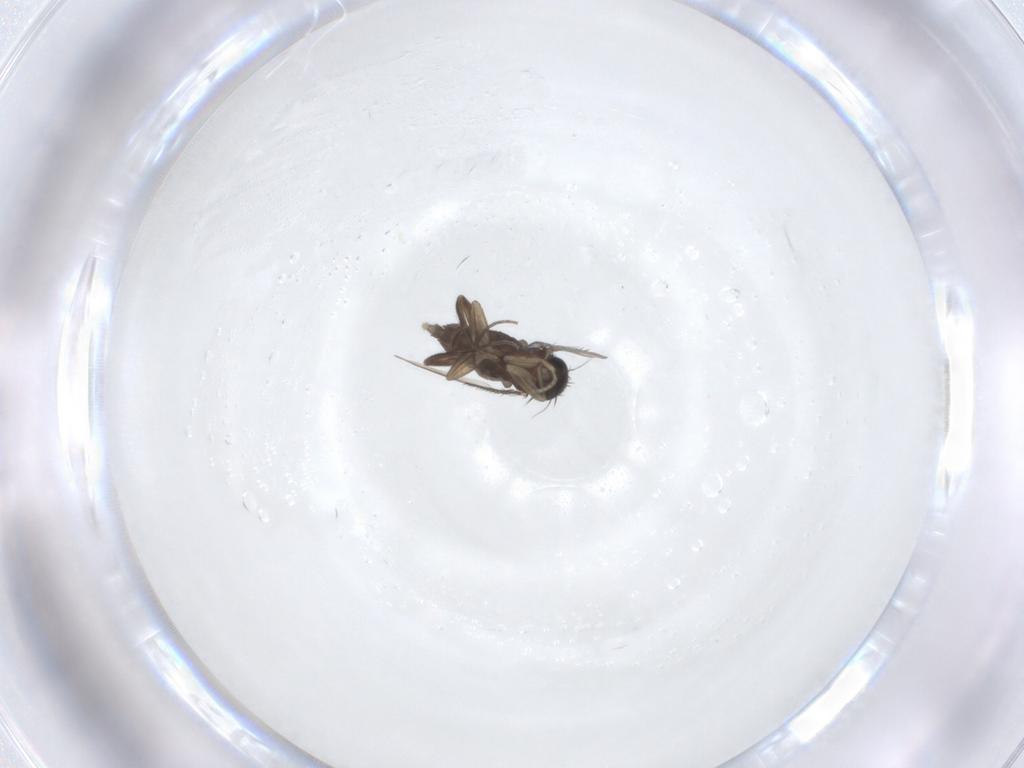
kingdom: Animalia
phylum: Arthropoda
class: Insecta
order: Diptera
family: Phoridae
